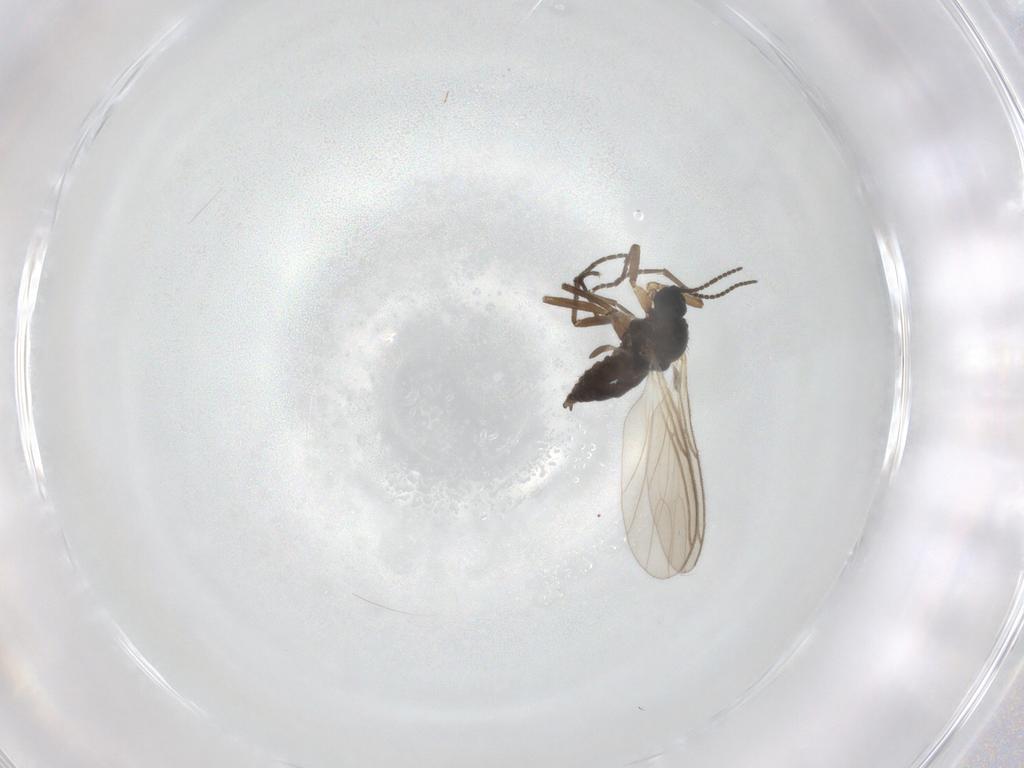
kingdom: Animalia
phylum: Arthropoda
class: Insecta
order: Diptera
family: Sciaridae
